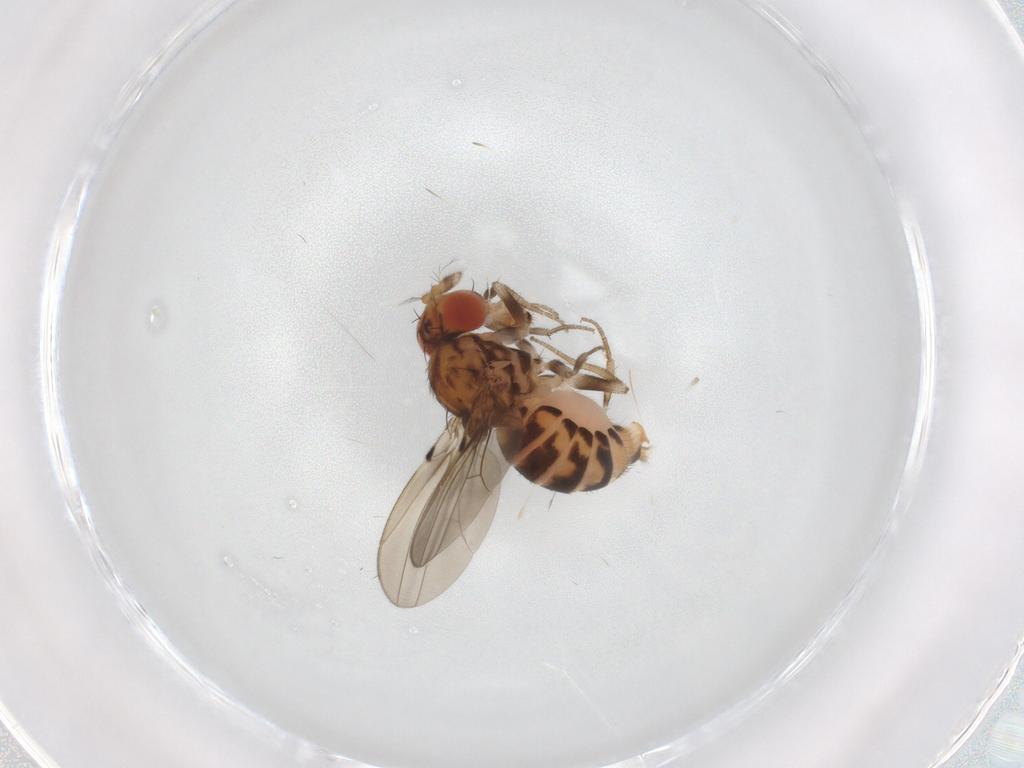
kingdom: Animalia
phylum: Arthropoda
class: Insecta
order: Diptera
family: Drosophilidae
